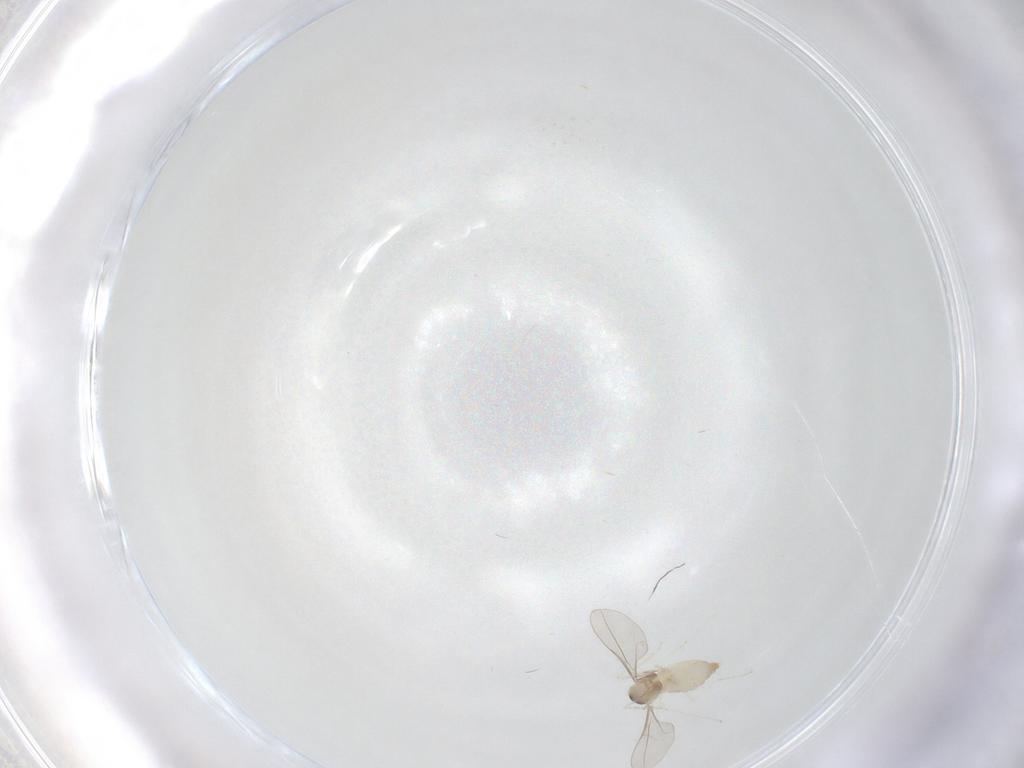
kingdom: Animalia
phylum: Arthropoda
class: Insecta
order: Diptera
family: Cecidomyiidae
